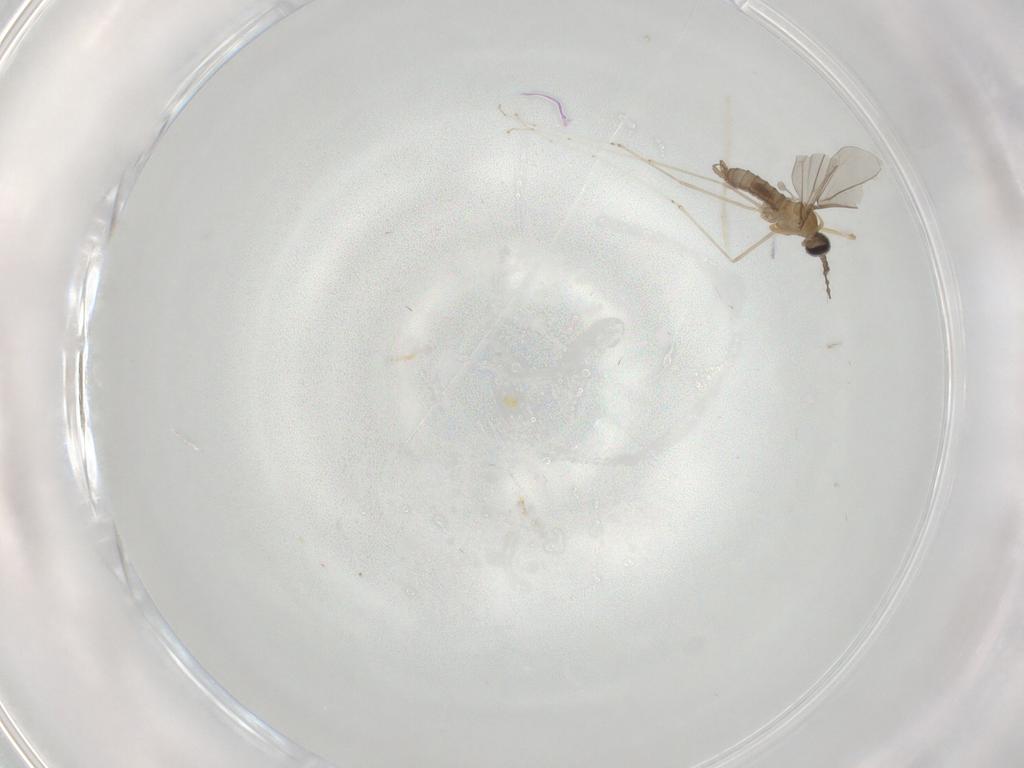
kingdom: Animalia
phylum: Arthropoda
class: Insecta
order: Diptera
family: Cecidomyiidae
